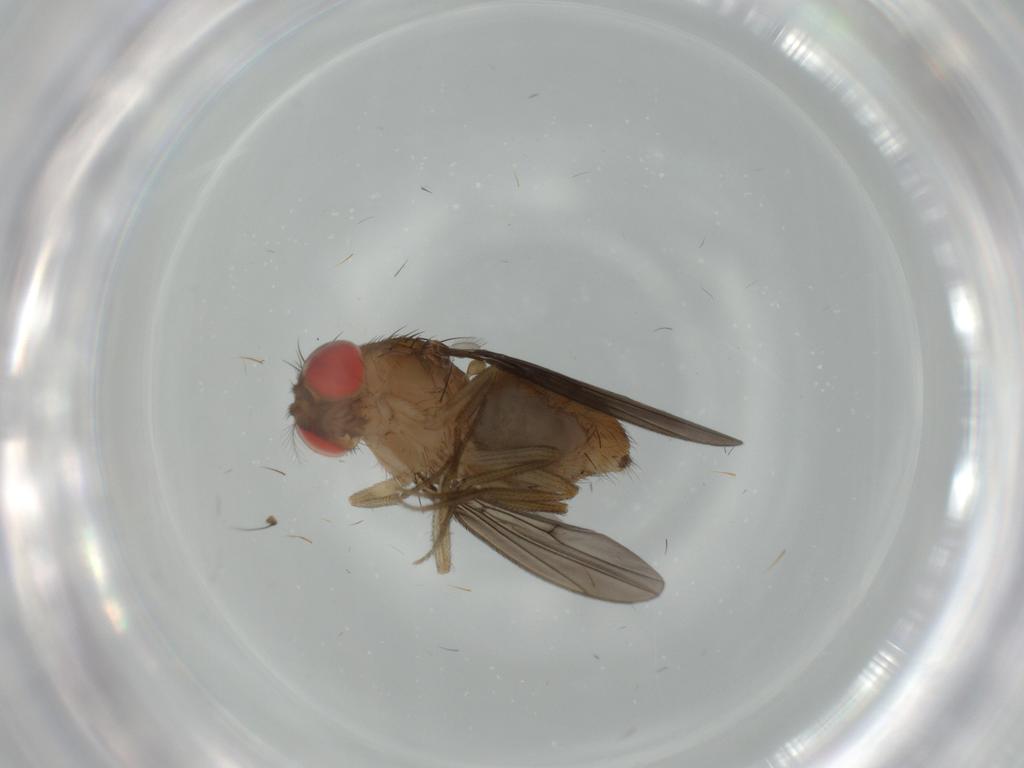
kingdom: Animalia
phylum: Arthropoda
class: Insecta
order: Diptera
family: Drosophilidae
